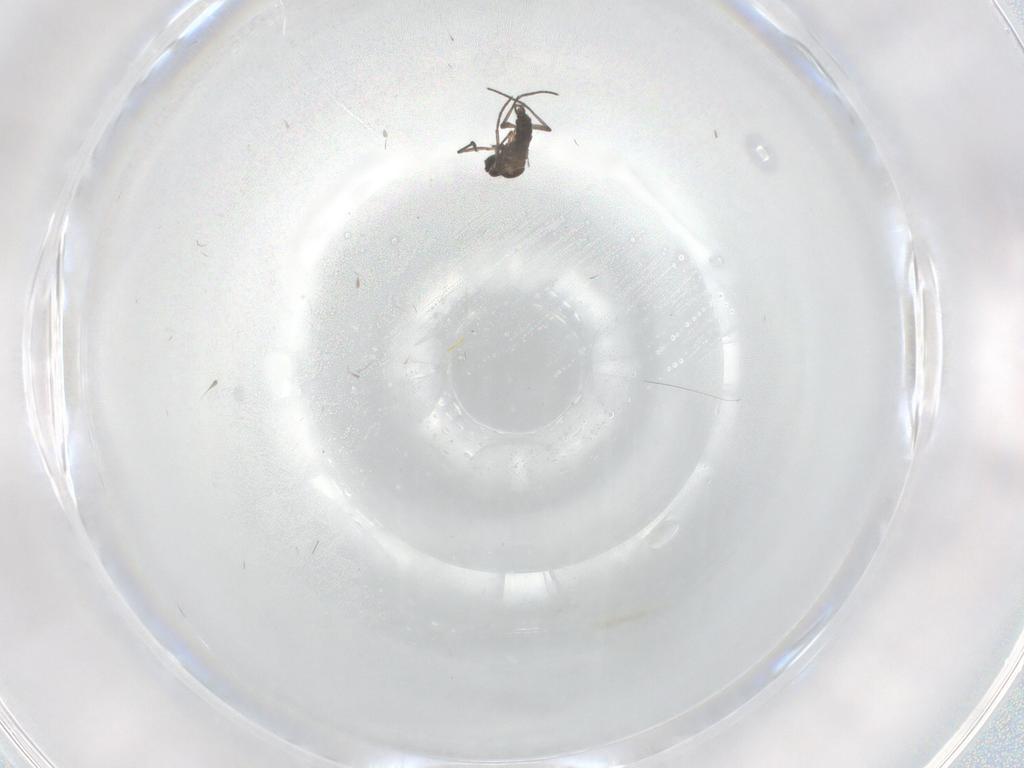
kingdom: Animalia
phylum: Arthropoda
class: Insecta
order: Diptera
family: Sciaridae
